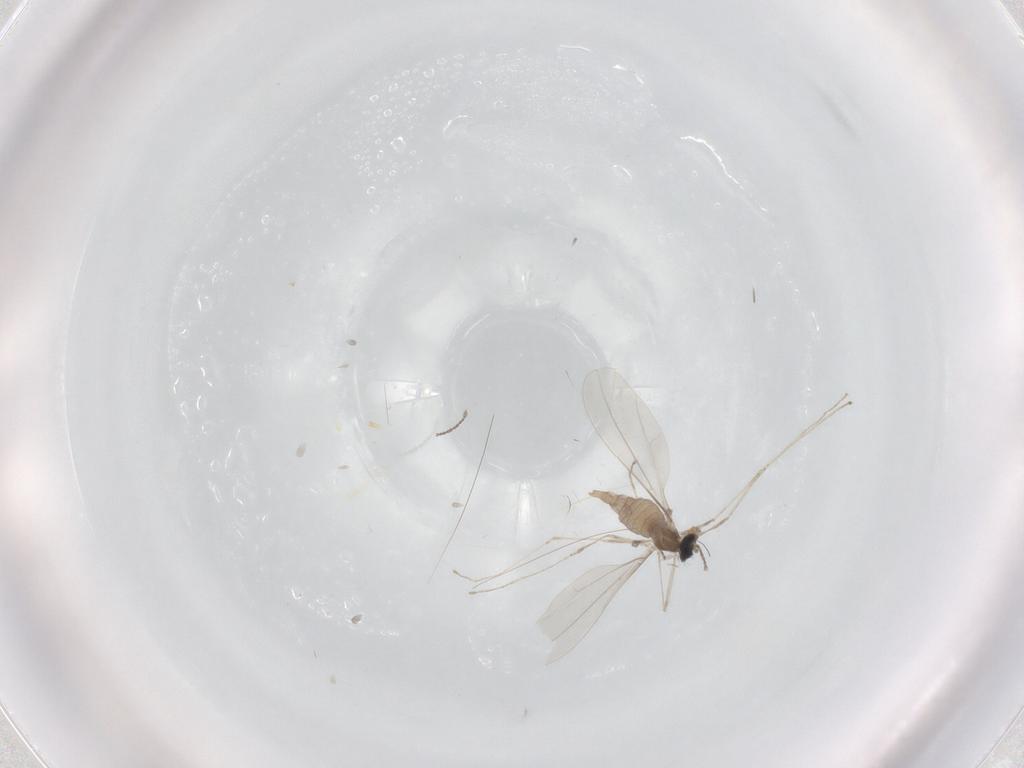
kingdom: Animalia
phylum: Arthropoda
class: Insecta
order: Diptera
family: Cecidomyiidae
